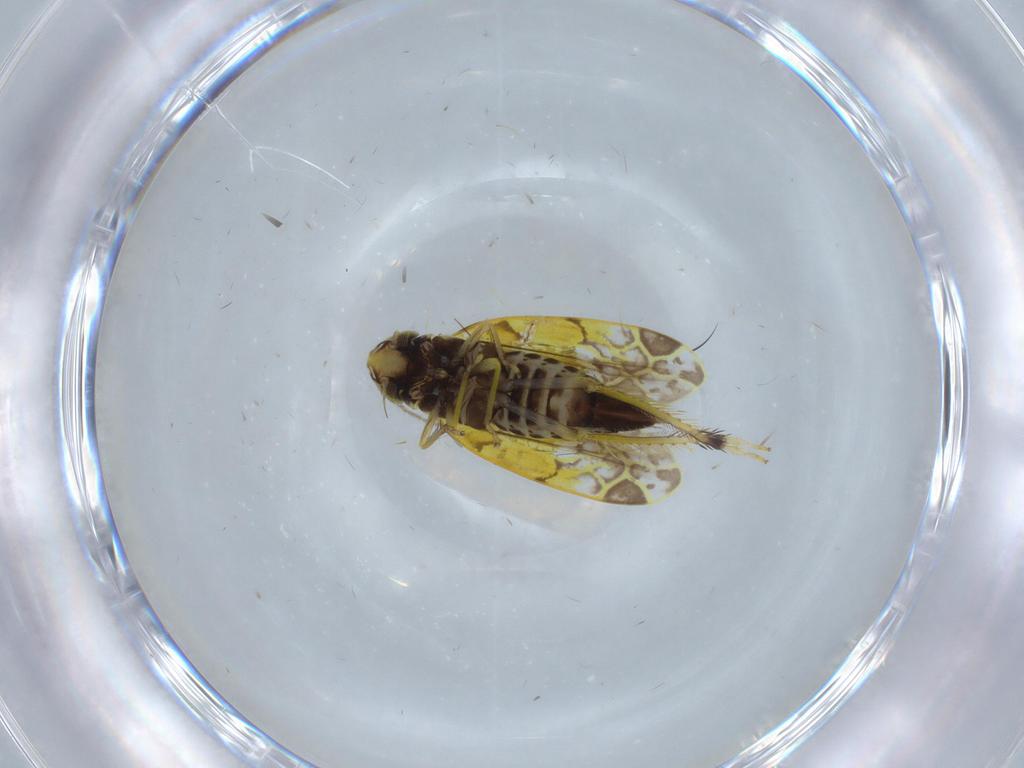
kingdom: Animalia
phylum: Arthropoda
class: Insecta
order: Hemiptera
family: Cicadellidae
